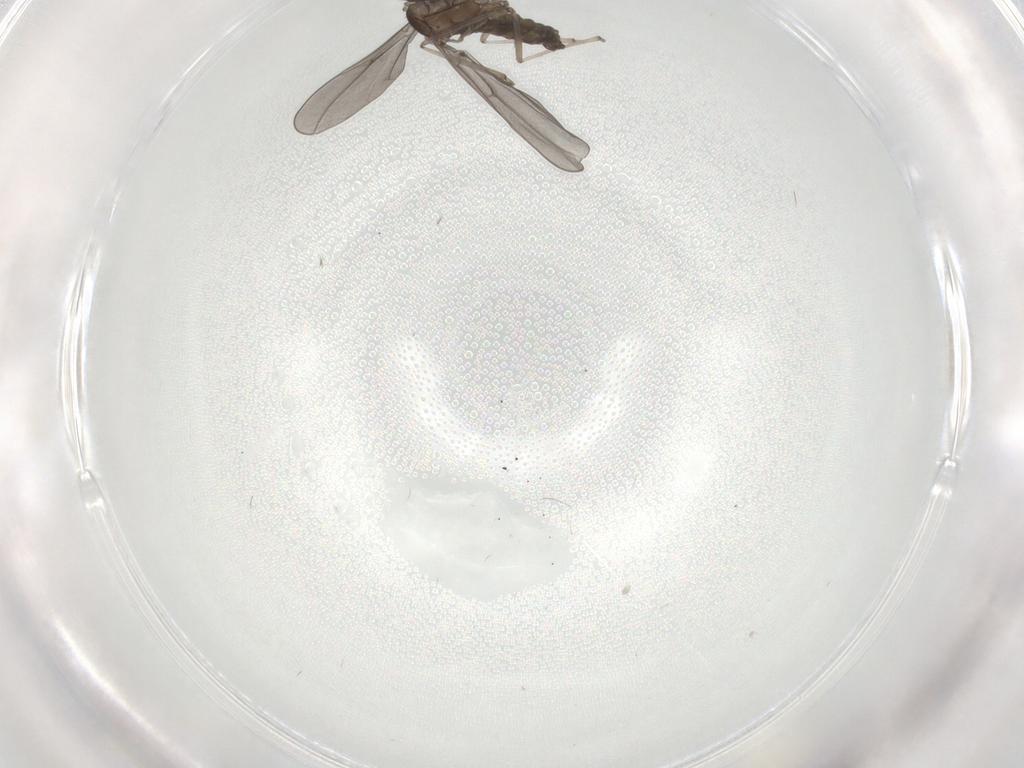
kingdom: Animalia
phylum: Arthropoda
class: Insecta
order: Diptera
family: Cecidomyiidae
